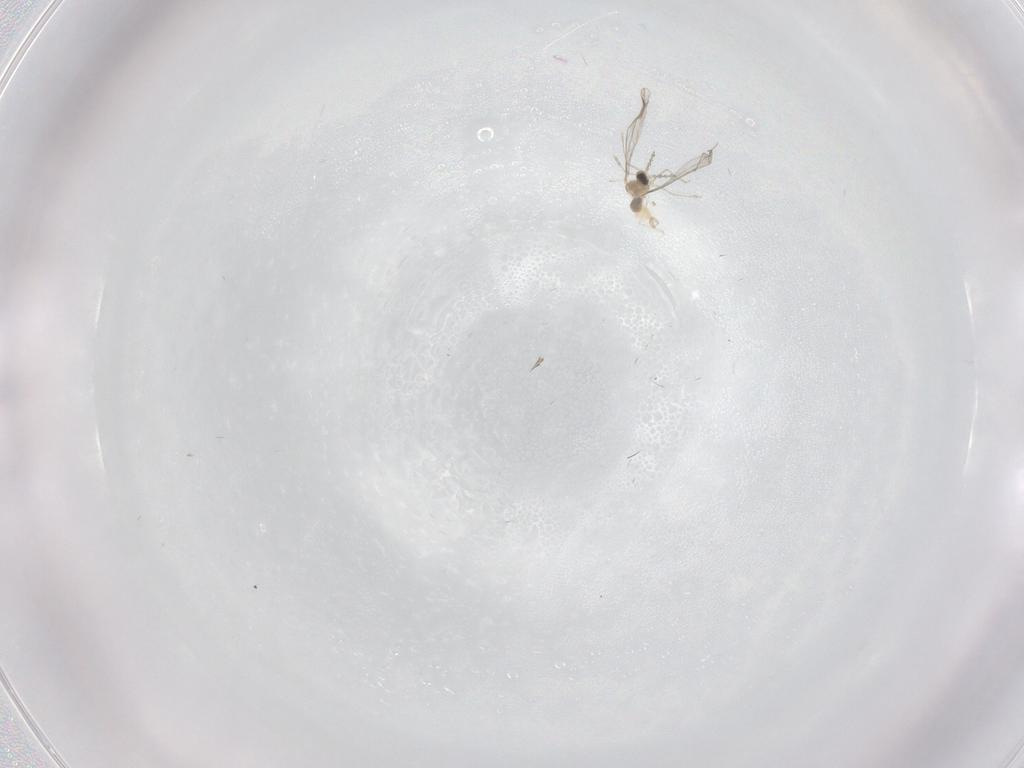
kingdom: Animalia
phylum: Arthropoda
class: Insecta
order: Diptera
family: Cecidomyiidae
